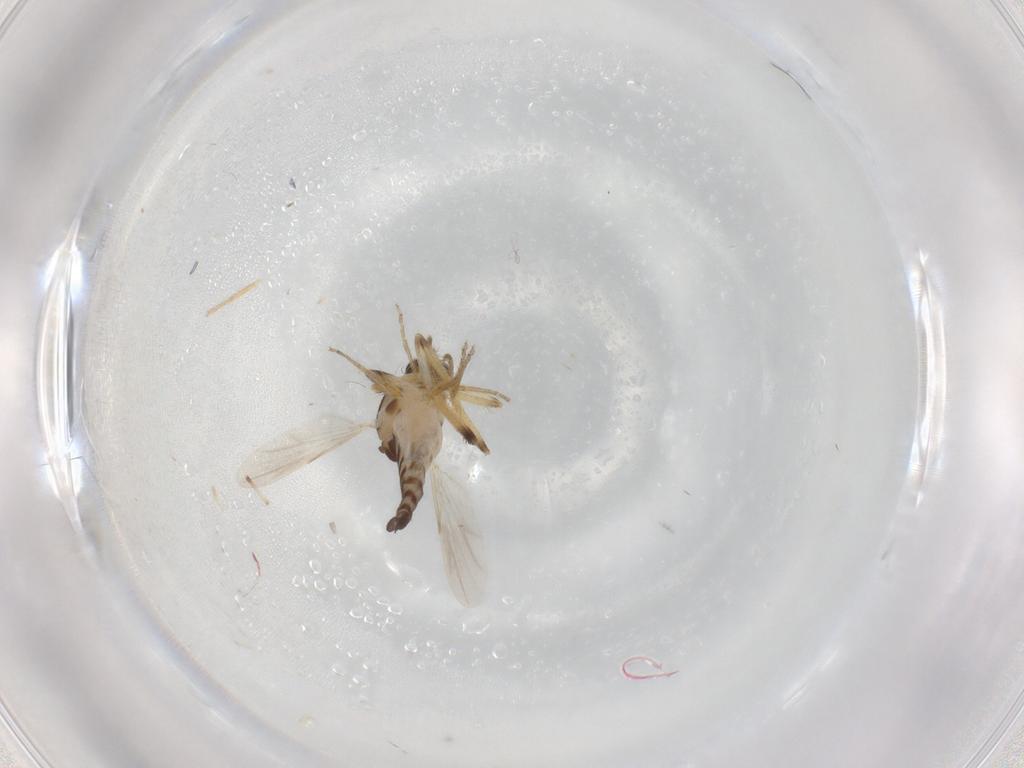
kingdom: Animalia
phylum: Arthropoda
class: Insecta
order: Diptera
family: Ceratopogonidae
